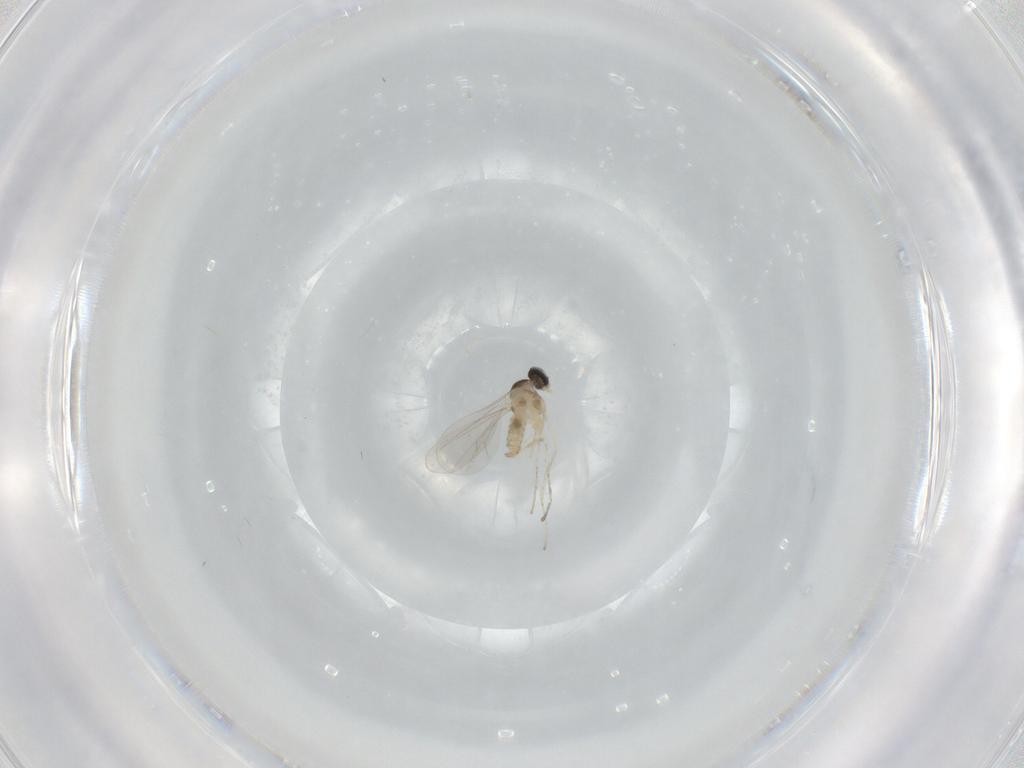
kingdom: Animalia
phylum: Arthropoda
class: Insecta
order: Diptera
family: Cecidomyiidae
